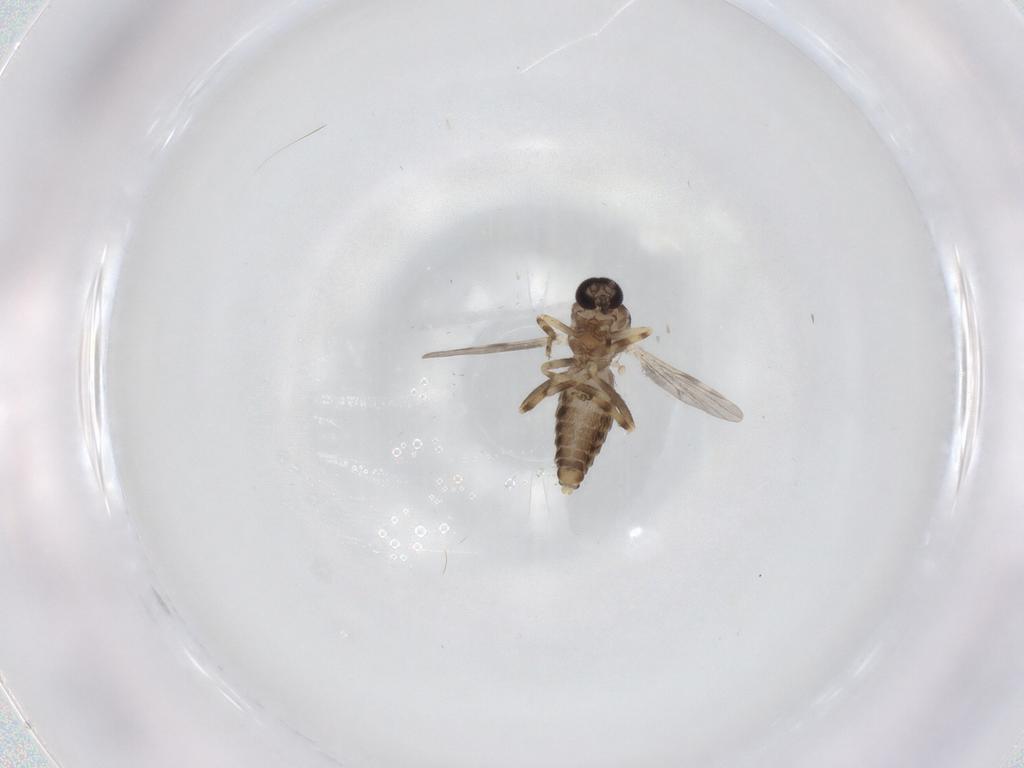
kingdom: Animalia
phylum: Arthropoda
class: Insecta
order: Diptera
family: Ceratopogonidae
